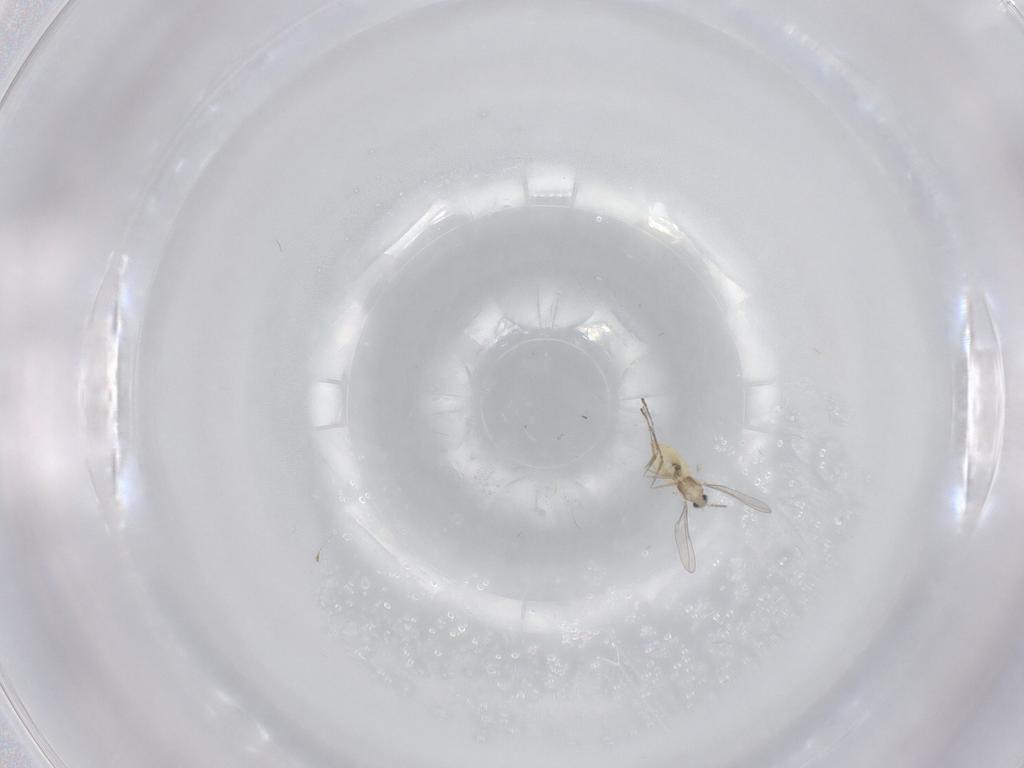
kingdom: Animalia
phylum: Arthropoda
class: Insecta
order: Diptera
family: Cecidomyiidae
